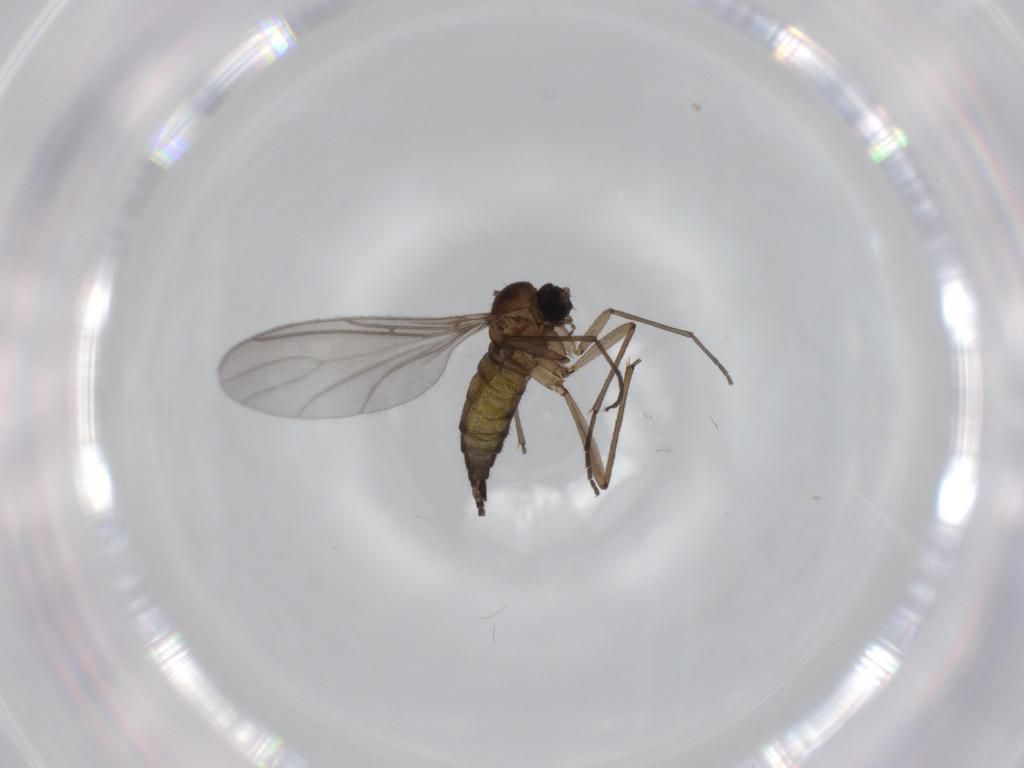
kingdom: Animalia
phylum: Arthropoda
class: Insecta
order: Diptera
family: Sciaridae
